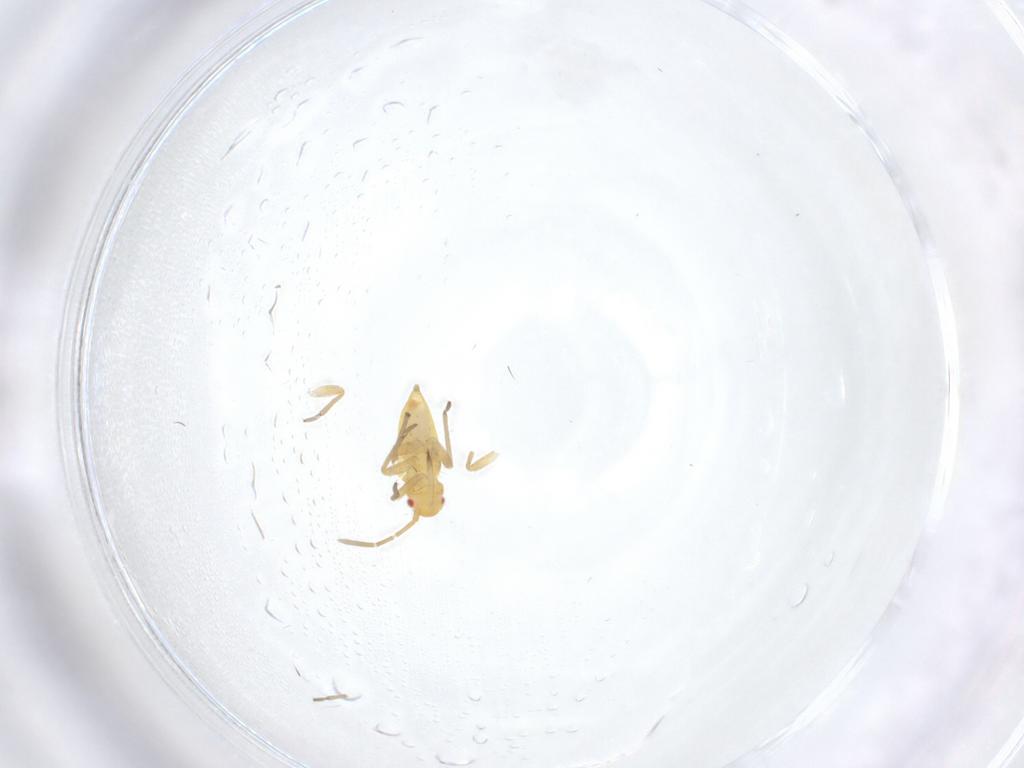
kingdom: Animalia
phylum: Arthropoda
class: Insecta
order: Hemiptera
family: Miridae
